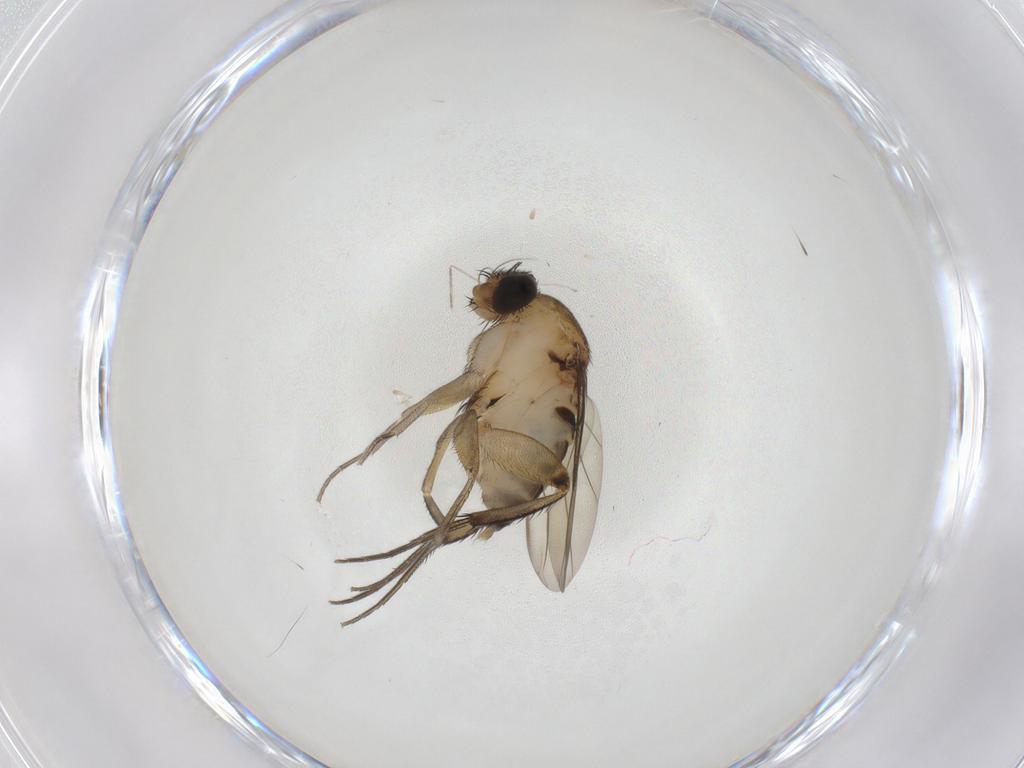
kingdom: Animalia
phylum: Arthropoda
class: Insecta
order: Diptera
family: Phoridae
